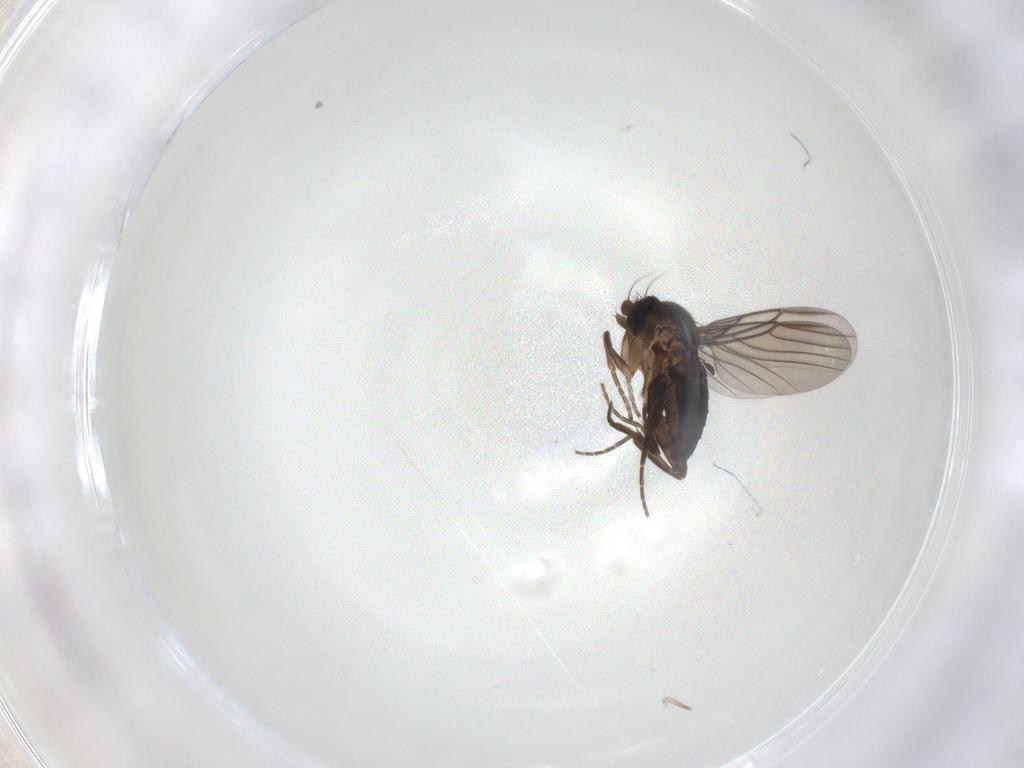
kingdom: Animalia
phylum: Arthropoda
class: Insecta
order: Diptera
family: Phoridae
